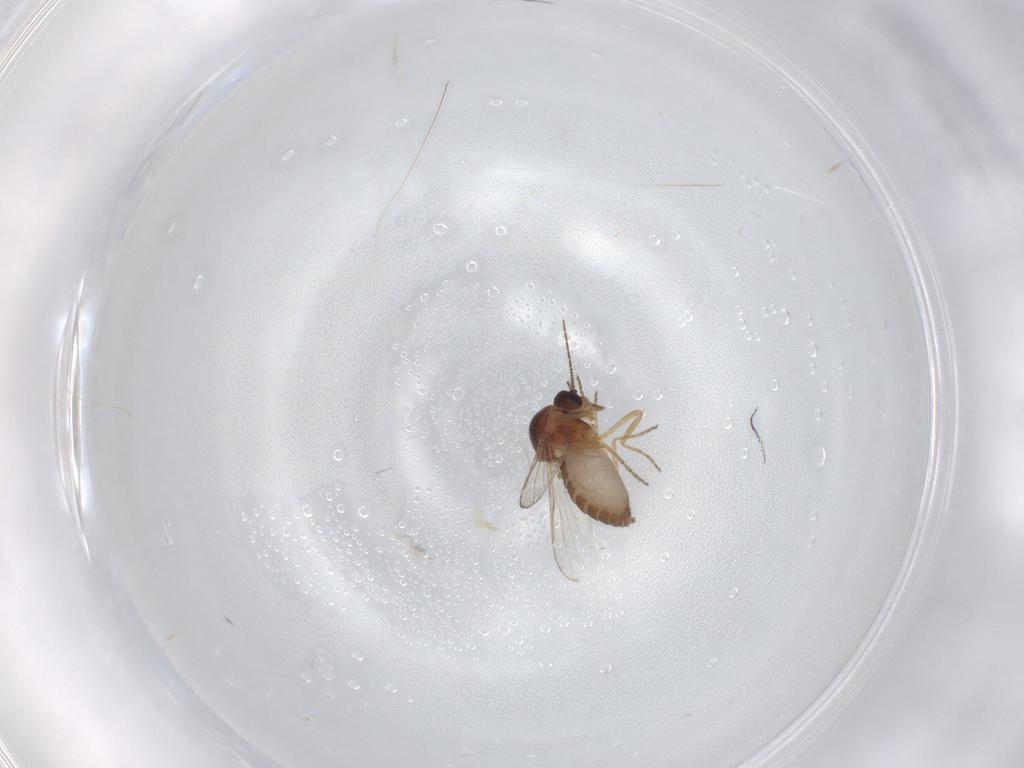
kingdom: Animalia
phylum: Arthropoda
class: Insecta
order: Diptera
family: Ceratopogonidae
